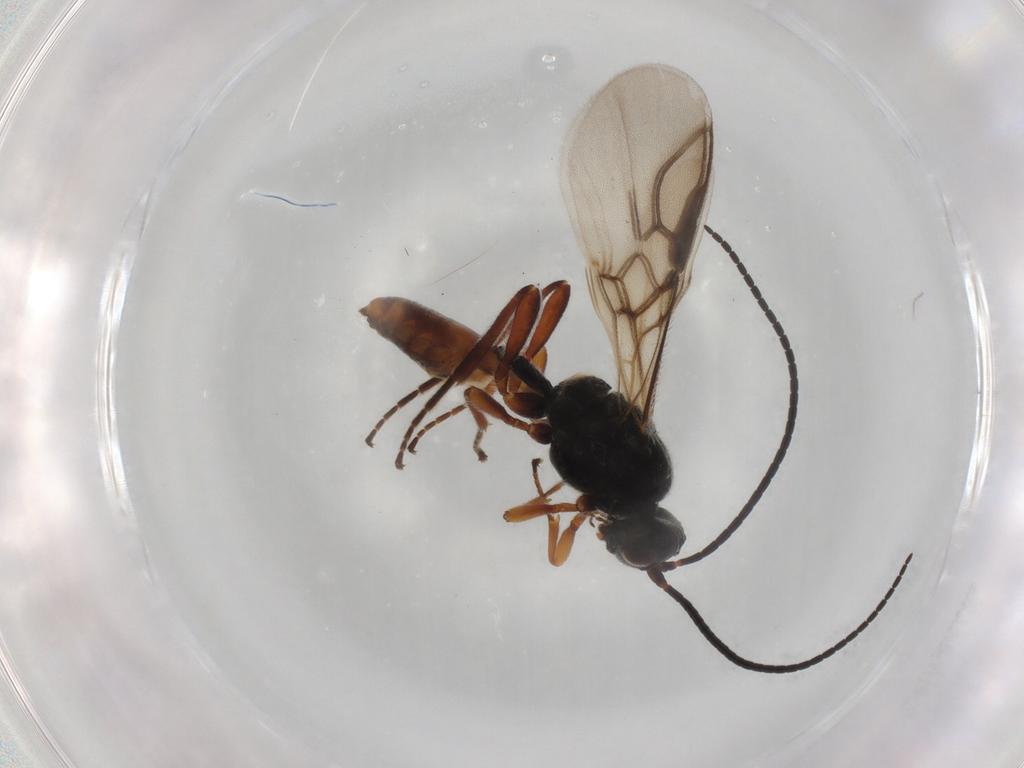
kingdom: Animalia
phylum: Arthropoda
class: Insecta
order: Hymenoptera
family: Braconidae
